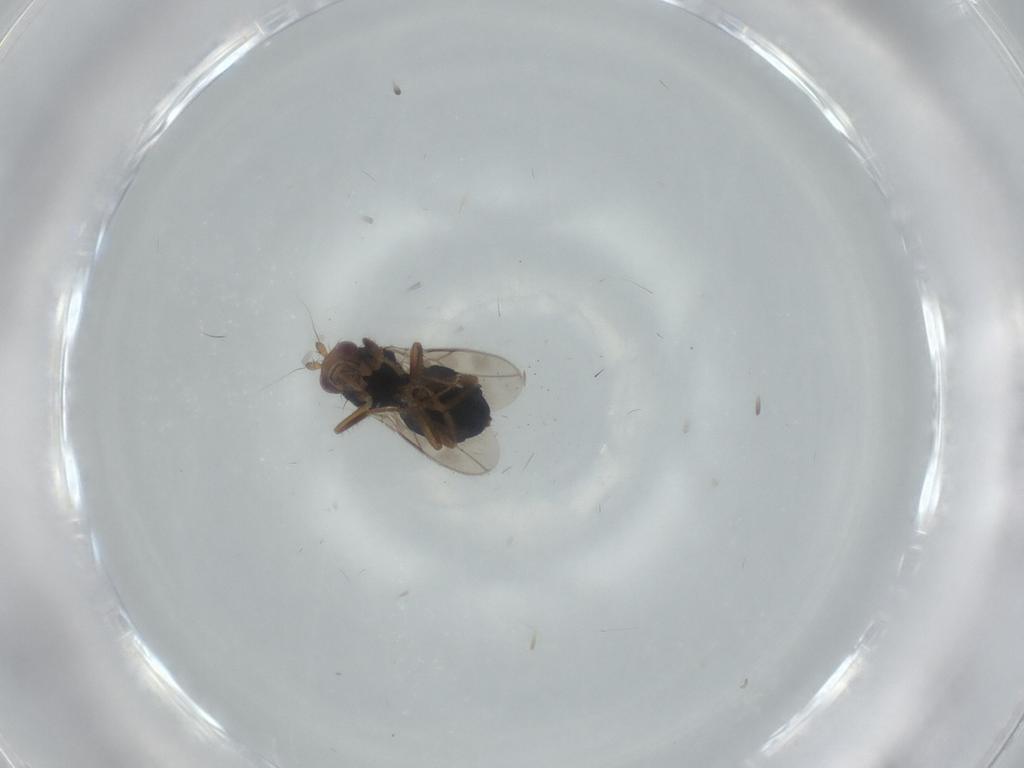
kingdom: Animalia
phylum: Arthropoda
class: Insecta
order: Diptera
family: Sphaeroceridae
